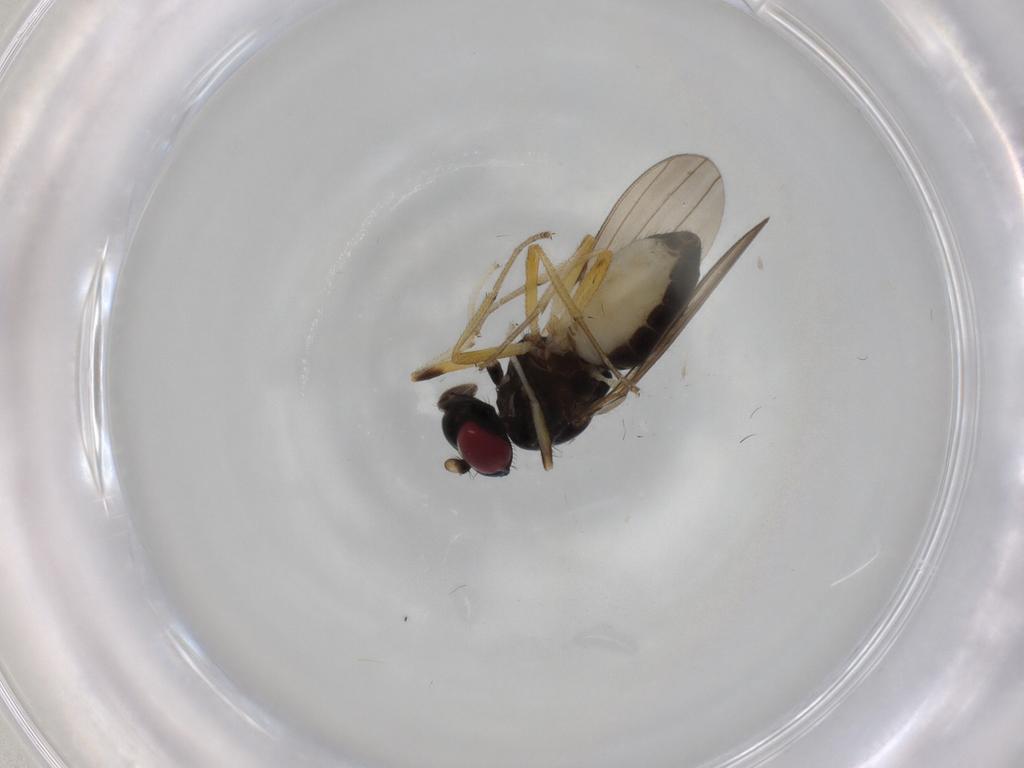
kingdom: Animalia
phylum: Arthropoda
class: Insecta
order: Diptera
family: Lauxaniidae
